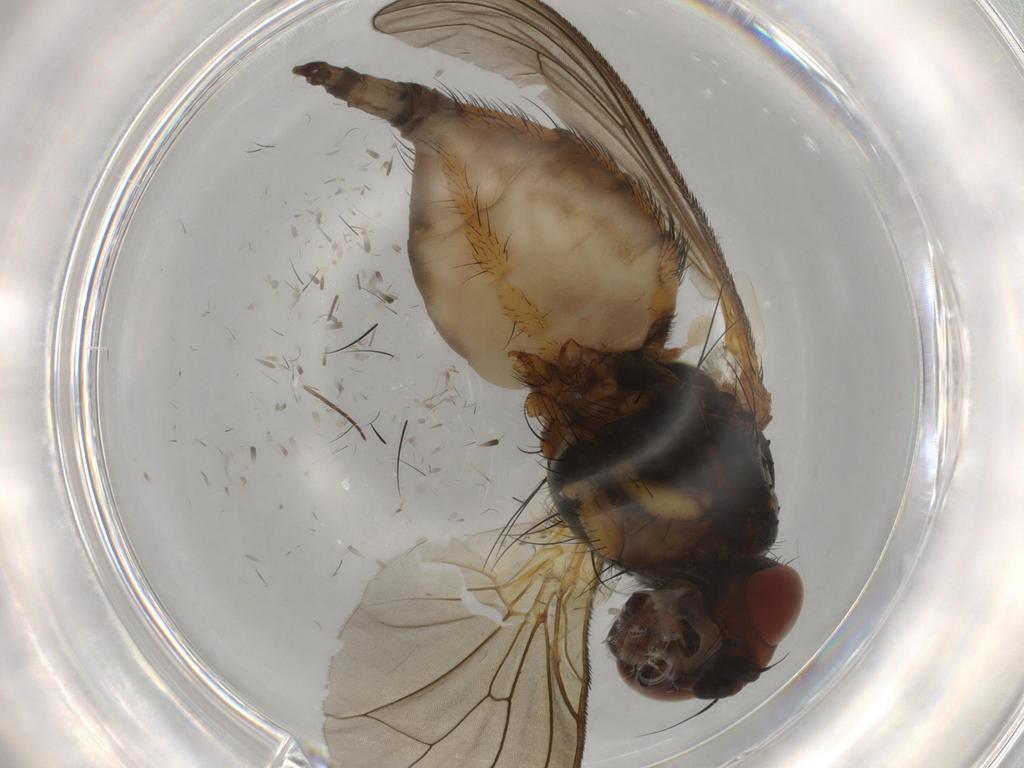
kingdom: Animalia
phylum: Arthropoda
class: Insecta
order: Diptera
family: Anthomyiidae
